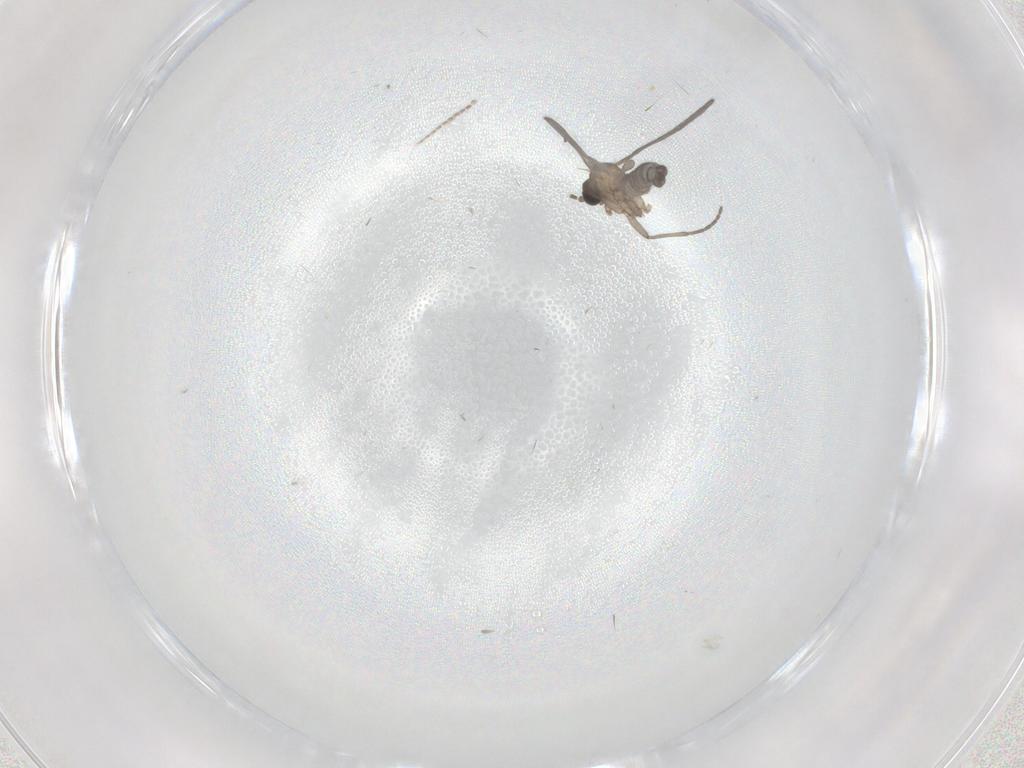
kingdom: Animalia
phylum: Arthropoda
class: Insecta
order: Diptera
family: Sciaridae
